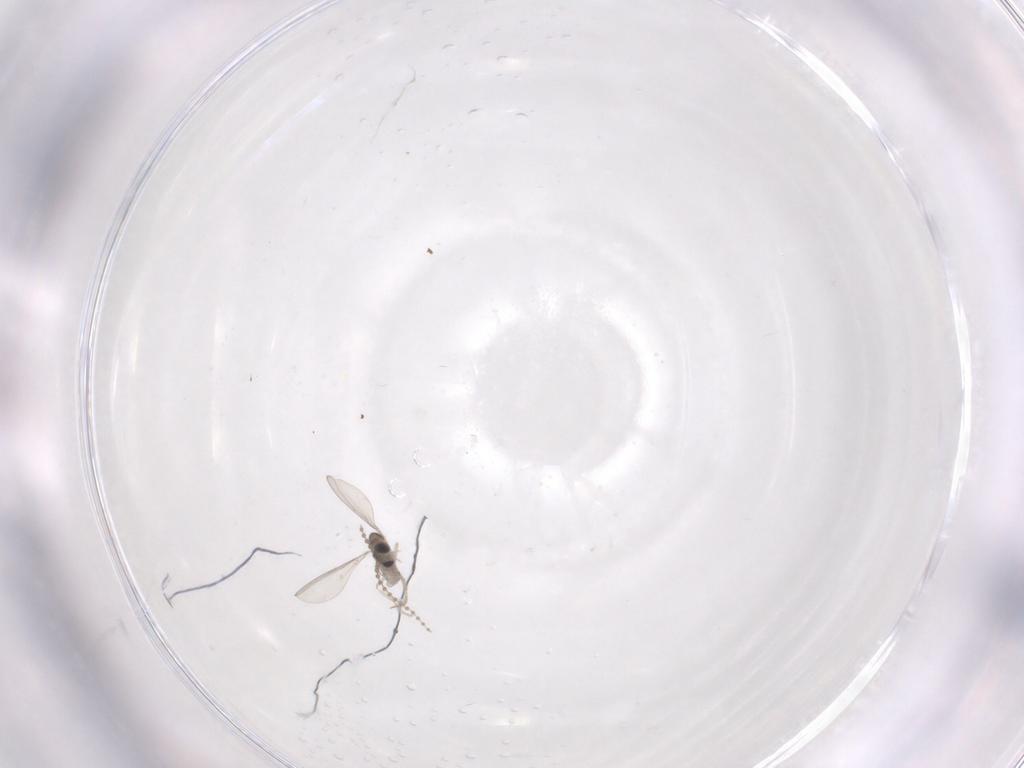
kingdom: Animalia
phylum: Arthropoda
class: Insecta
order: Diptera
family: Cecidomyiidae
